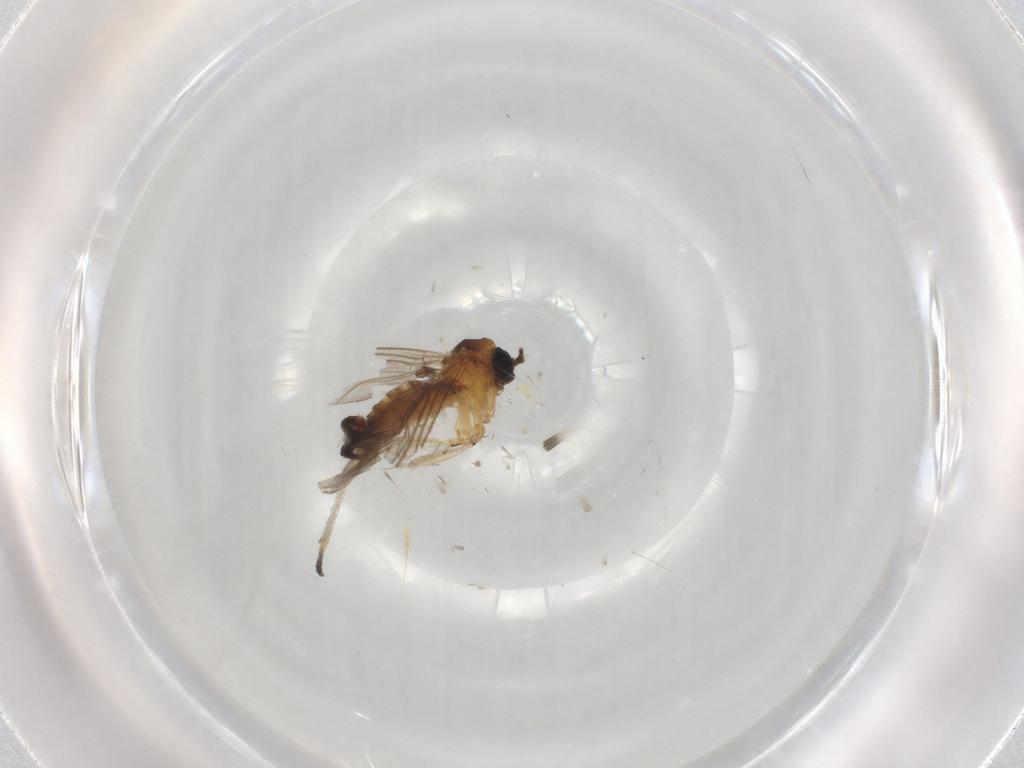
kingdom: Animalia
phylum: Arthropoda
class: Insecta
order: Diptera
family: Sciaridae
